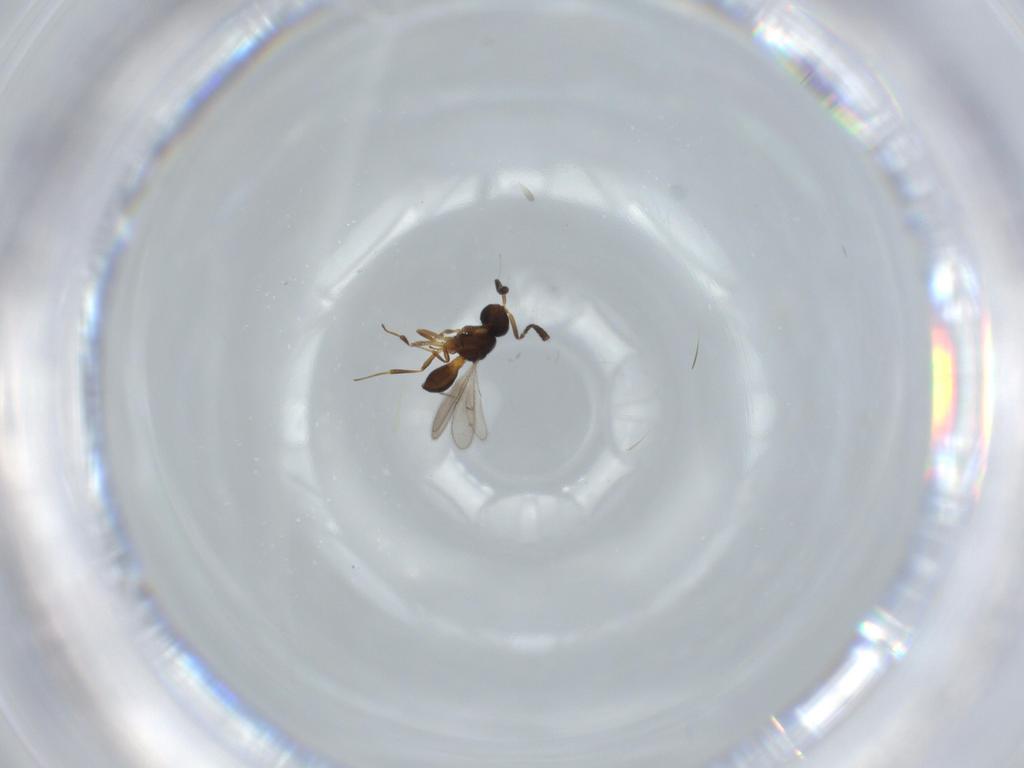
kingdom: Animalia
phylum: Arthropoda
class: Insecta
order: Hymenoptera
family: Scelionidae
